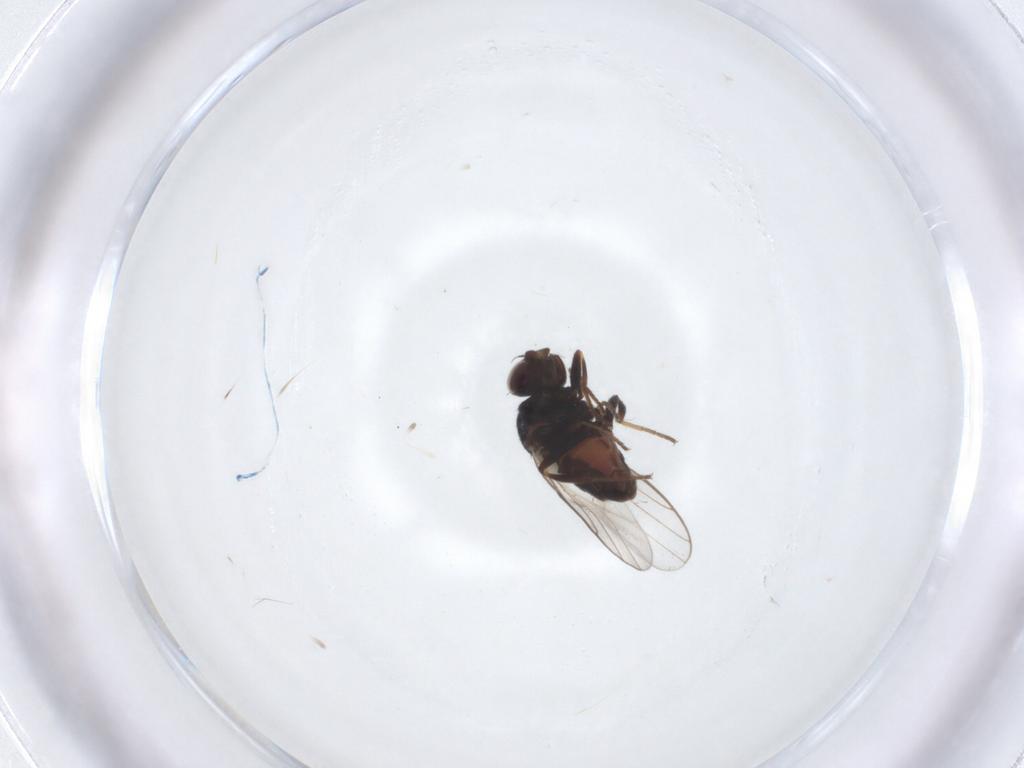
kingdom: Animalia
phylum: Arthropoda
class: Insecta
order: Diptera
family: Chloropidae
